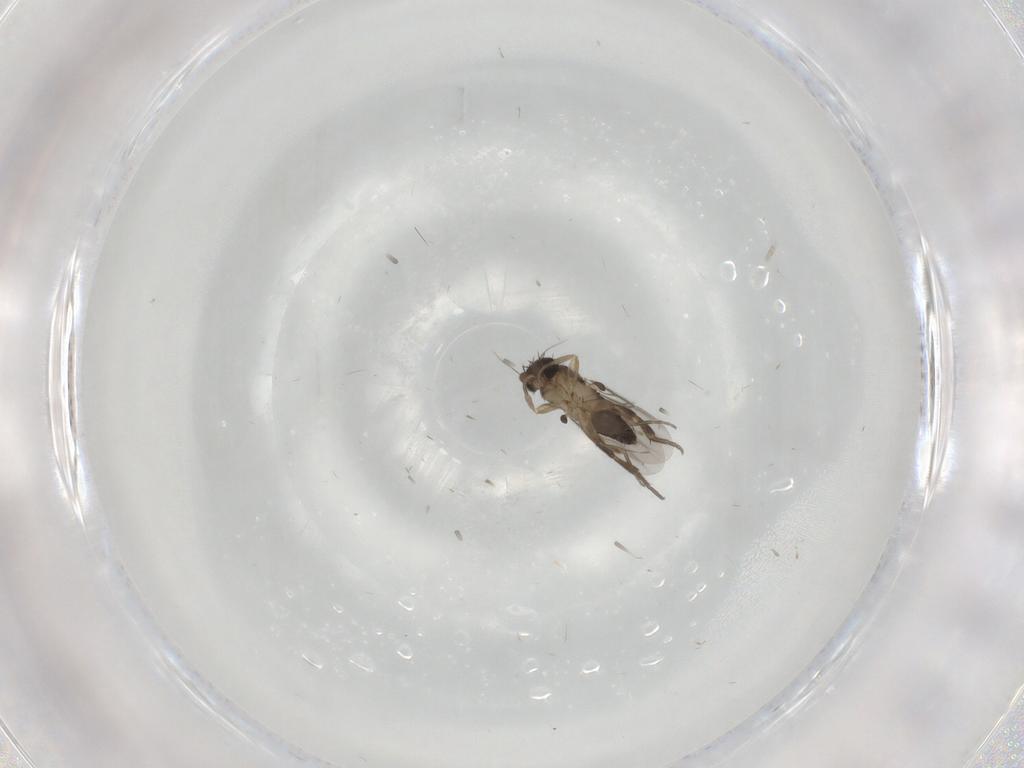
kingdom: Animalia
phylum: Arthropoda
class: Insecta
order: Diptera
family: Phoridae
